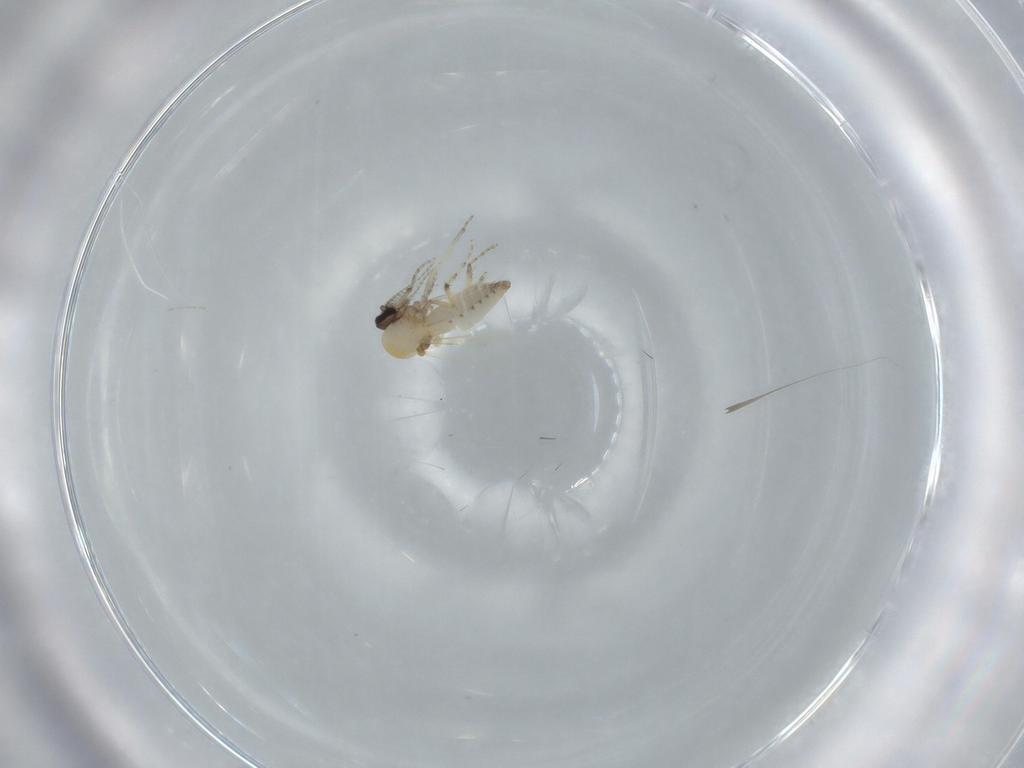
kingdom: Animalia
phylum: Arthropoda
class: Insecta
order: Diptera
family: Ceratopogonidae
